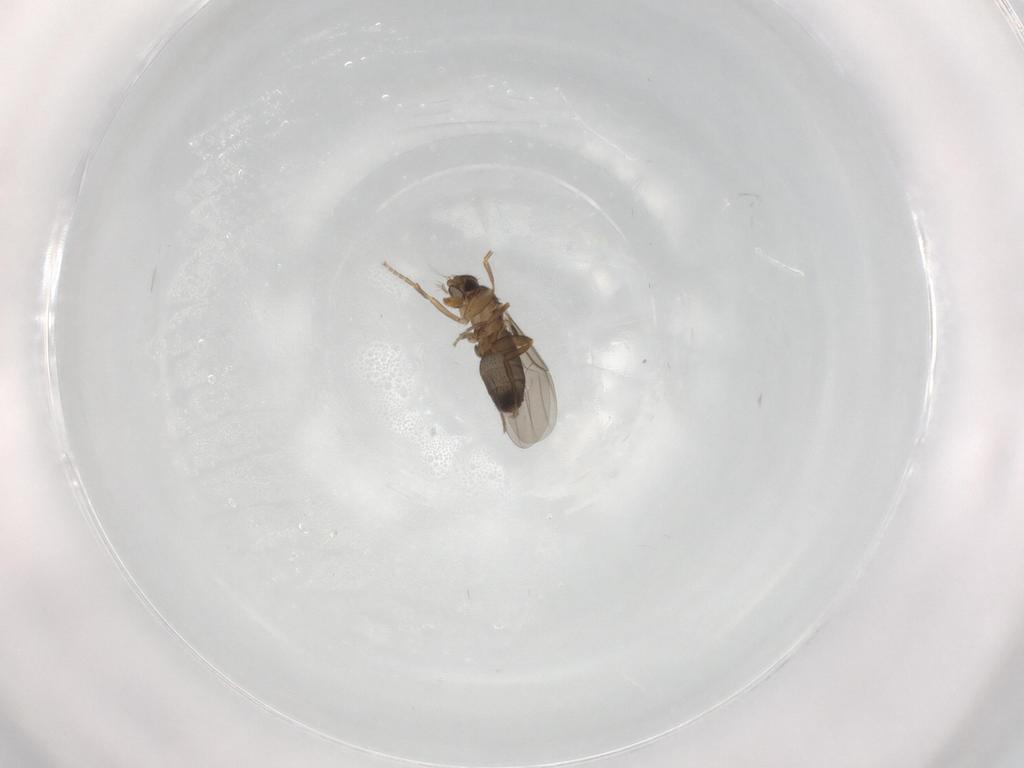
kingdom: Animalia
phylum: Arthropoda
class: Insecta
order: Diptera
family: Phoridae
